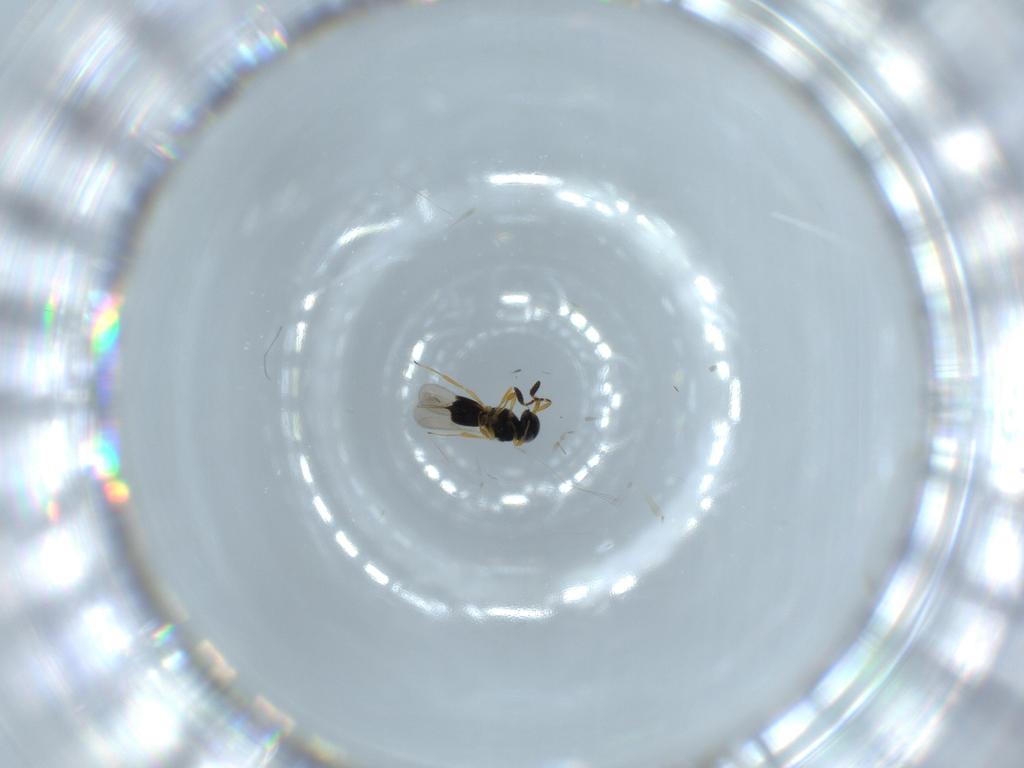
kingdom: Animalia
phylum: Arthropoda
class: Insecta
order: Hymenoptera
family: Scelionidae
